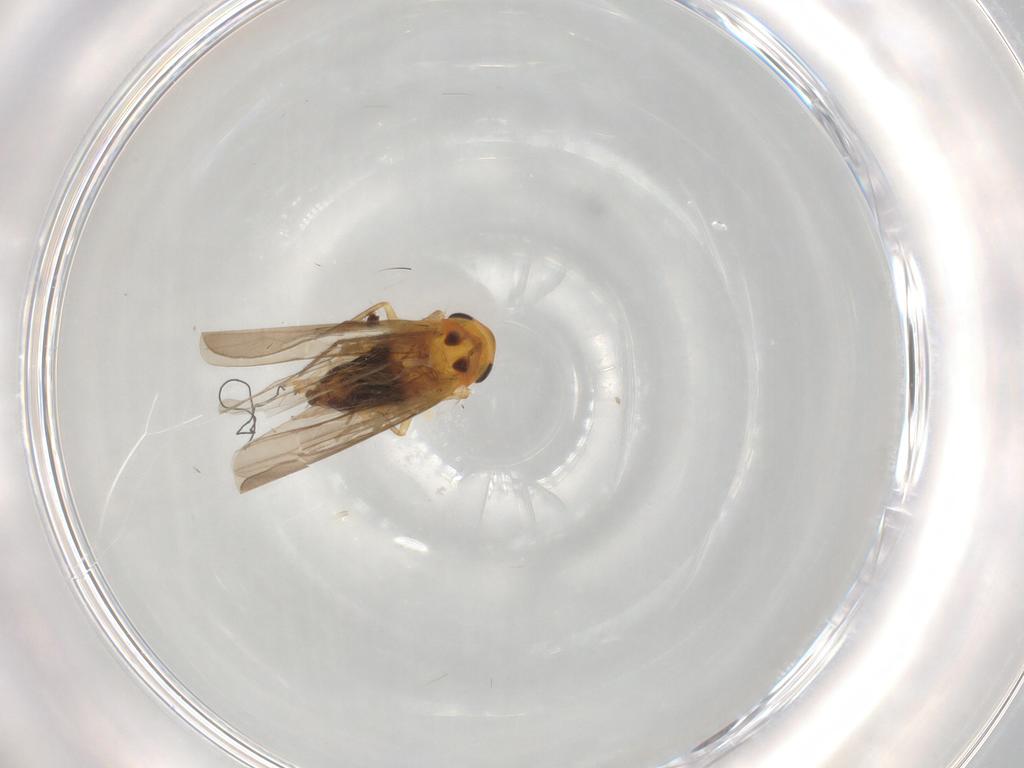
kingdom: Animalia
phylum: Arthropoda
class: Insecta
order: Hemiptera
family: Cicadellidae
